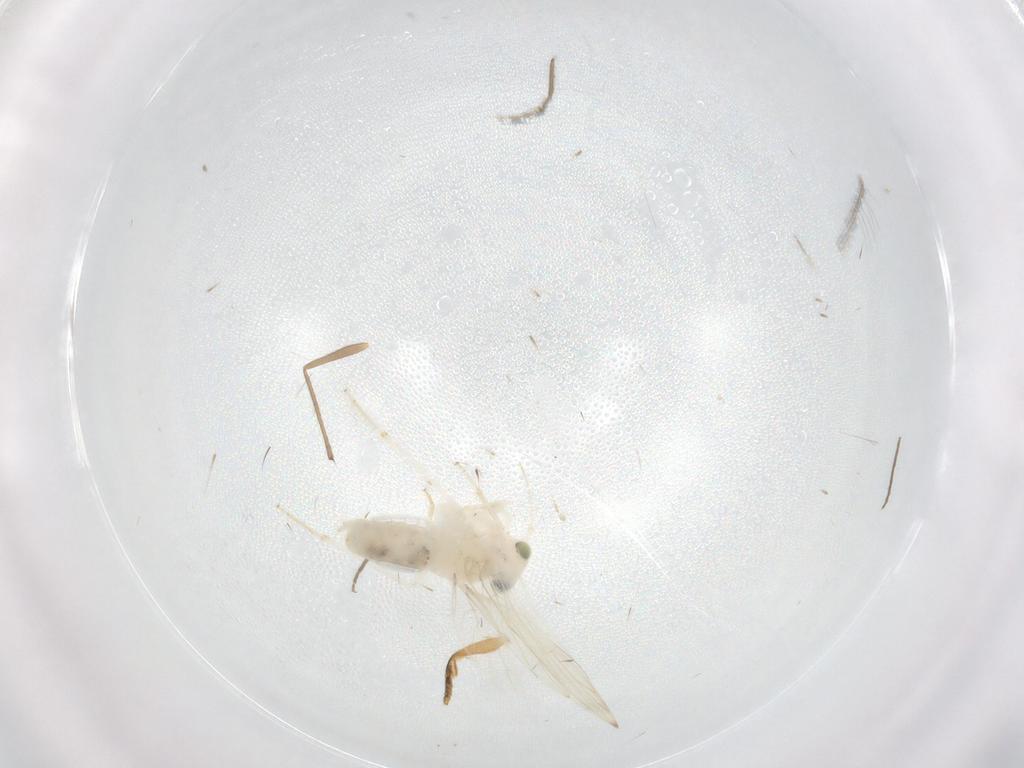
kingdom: Animalia
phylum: Arthropoda
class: Insecta
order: Psocodea
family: Lepidopsocidae
